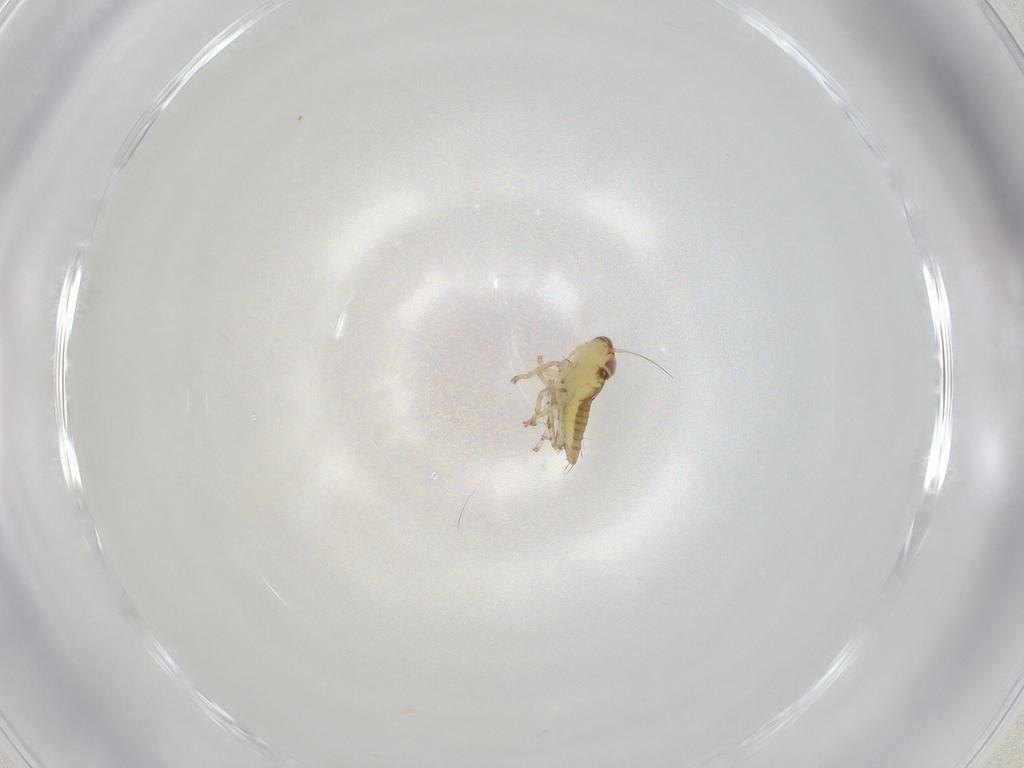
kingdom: Animalia
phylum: Arthropoda
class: Insecta
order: Hemiptera
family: Cicadellidae
